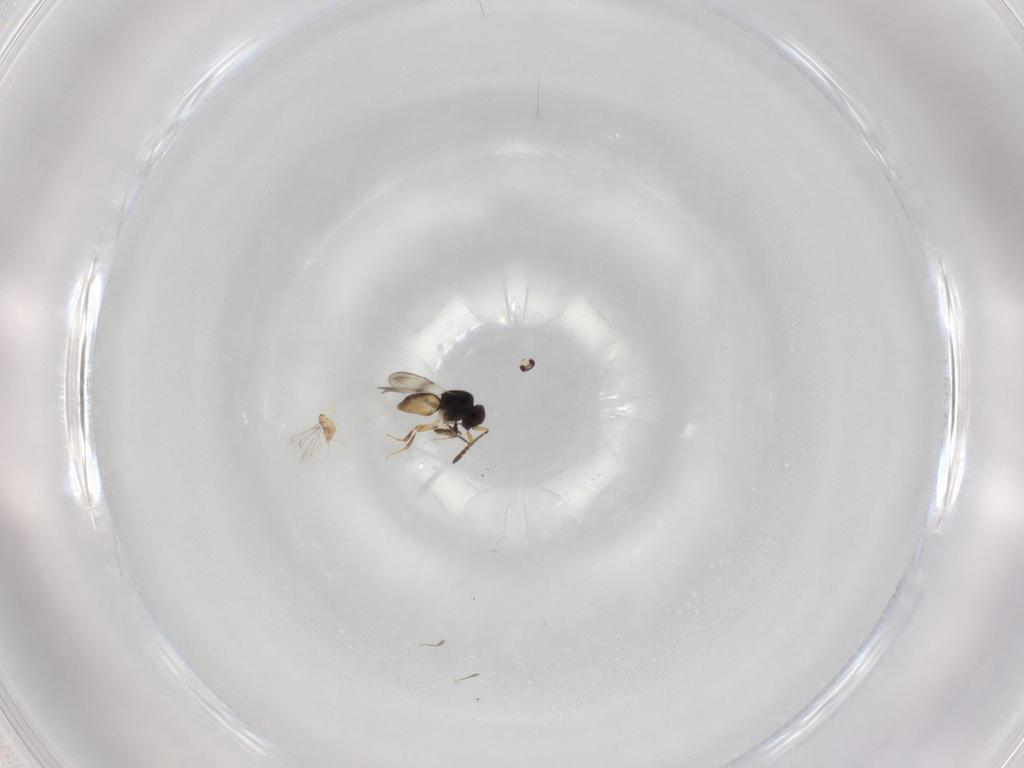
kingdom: Animalia
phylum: Arthropoda
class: Insecta
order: Hymenoptera
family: Mymaridae
